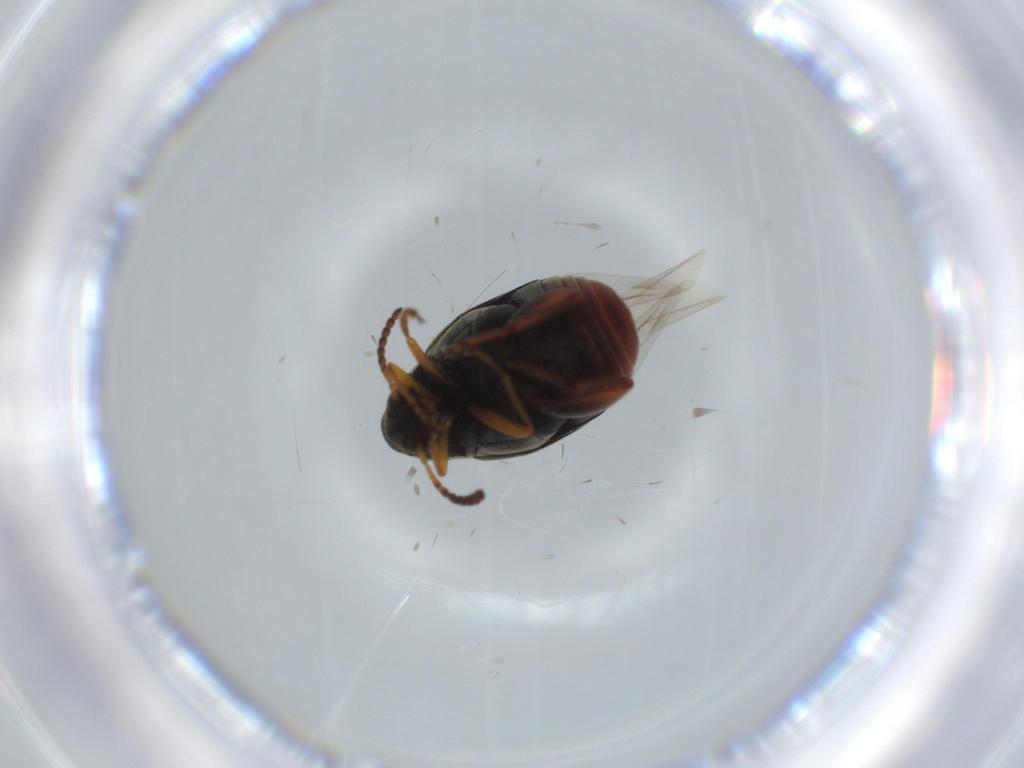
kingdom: Animalia
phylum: Arthropoda
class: Insecta
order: Coleoptera
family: Chrysomelidae
